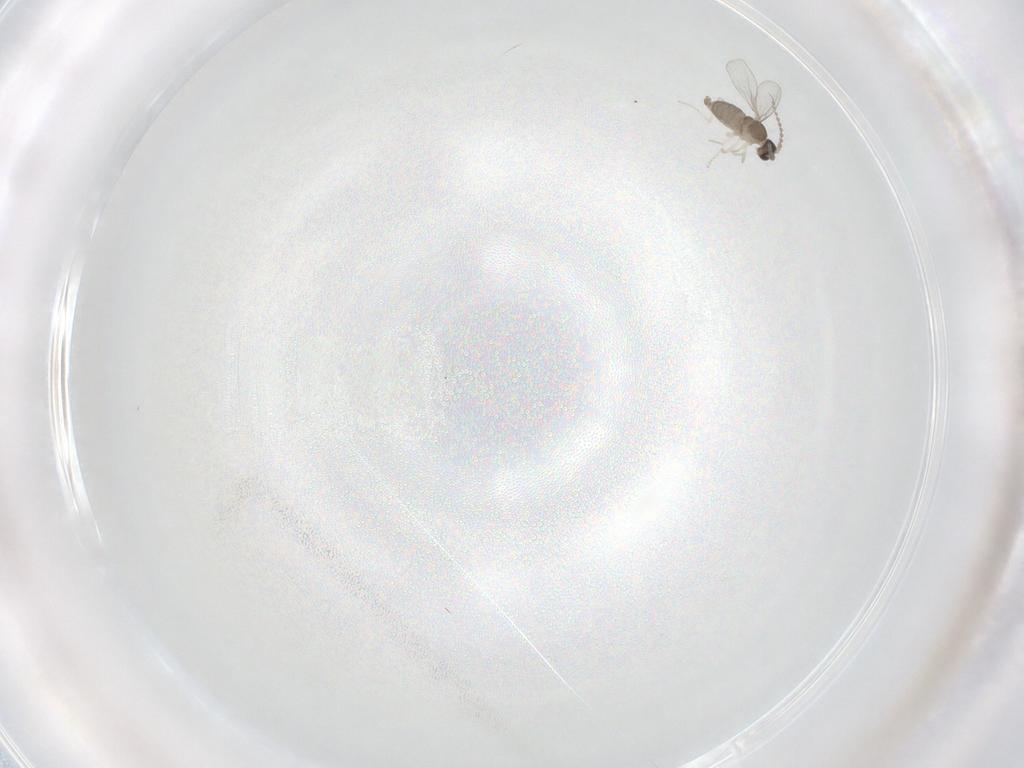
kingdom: Animalia
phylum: Arthropoda
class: Insecta
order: Diptera
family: Cecidomyiidae
